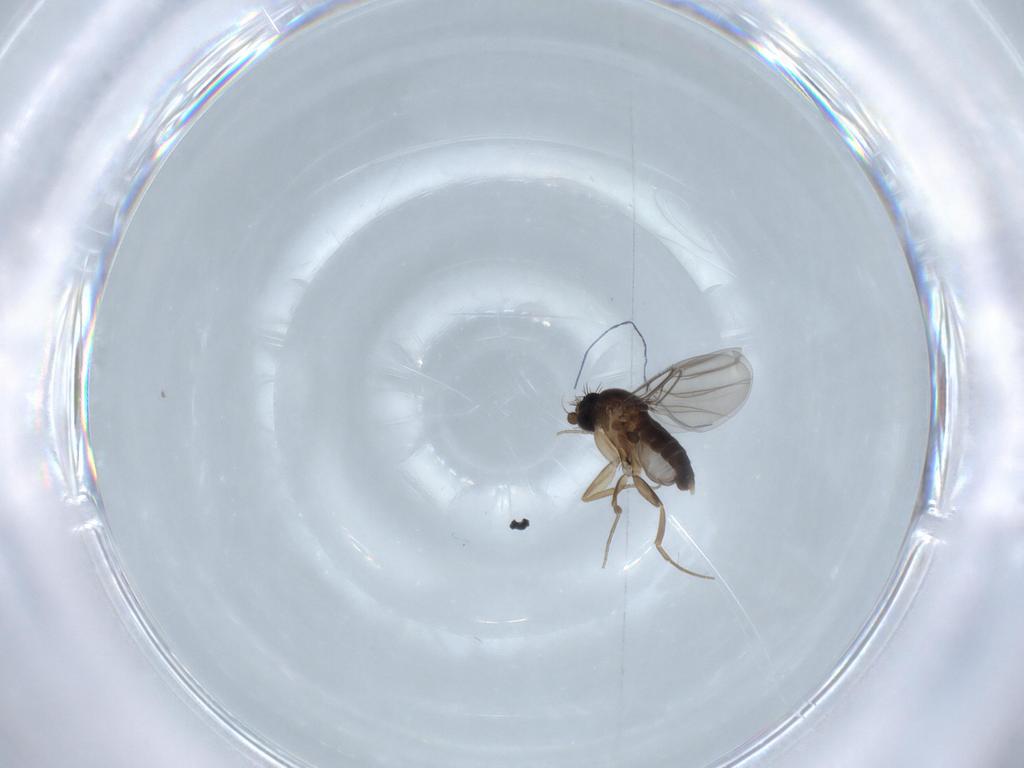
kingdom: Animalia
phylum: Arthropoda
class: Insecta
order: Diptera
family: Phoridae
